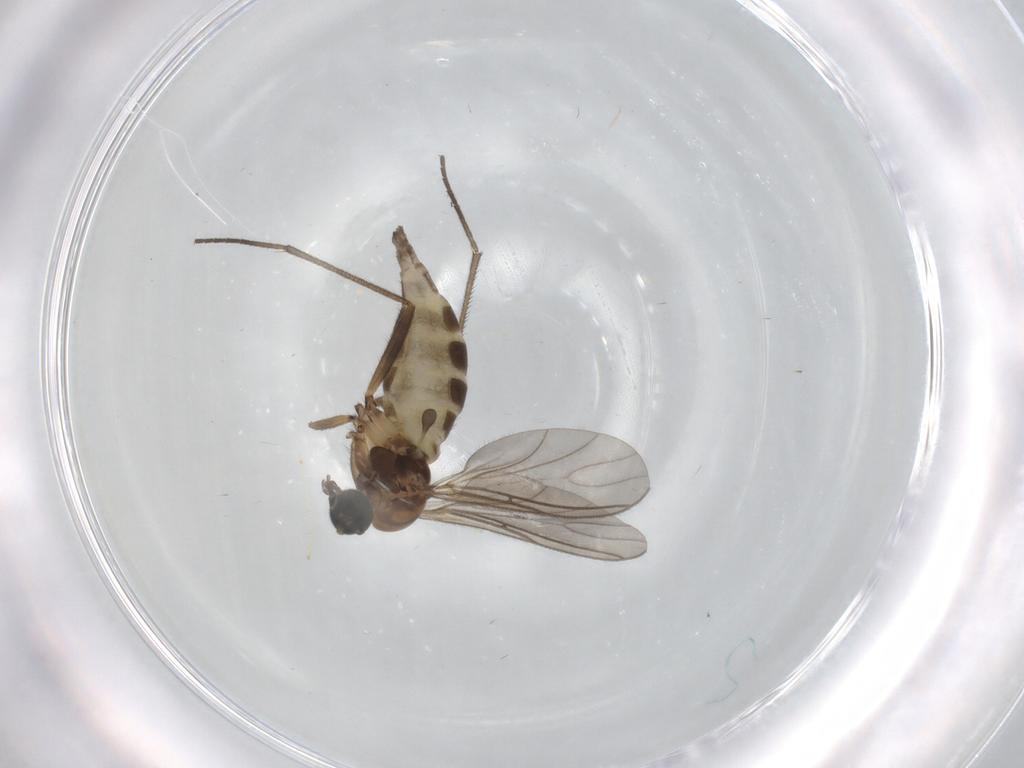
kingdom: Animalia
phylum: Arthropoda
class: Insecta
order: Diptera
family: Sciaridae
